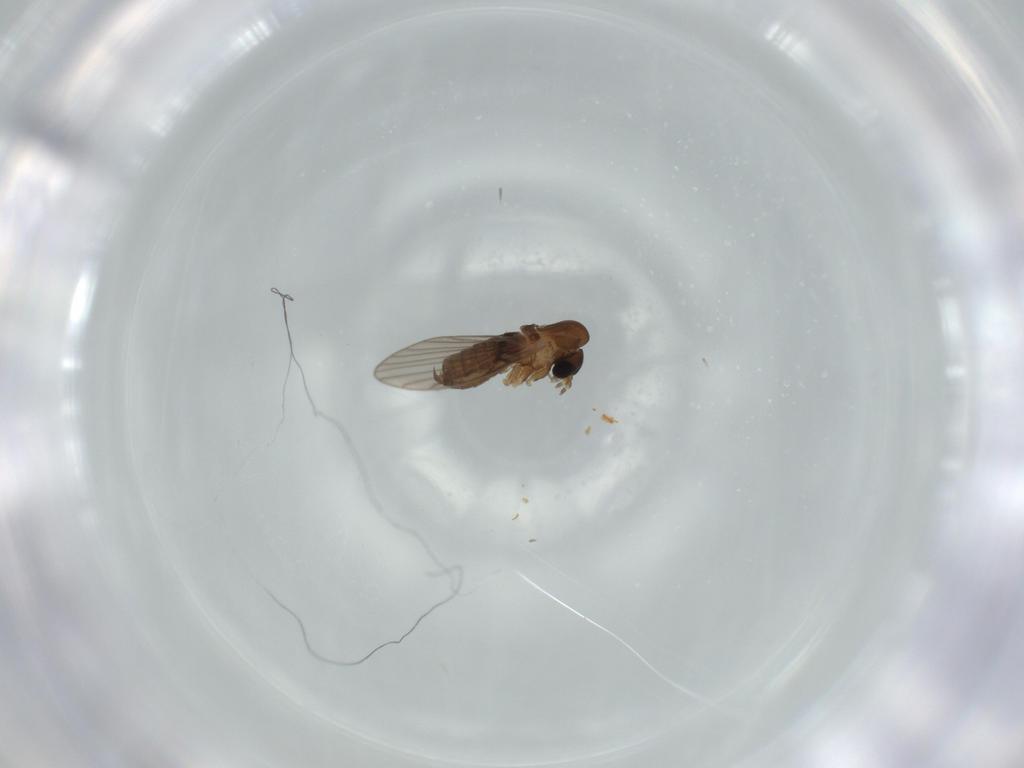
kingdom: Animalia
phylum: Arthropoda
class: Insecta
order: Diptera
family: Psychodidae
